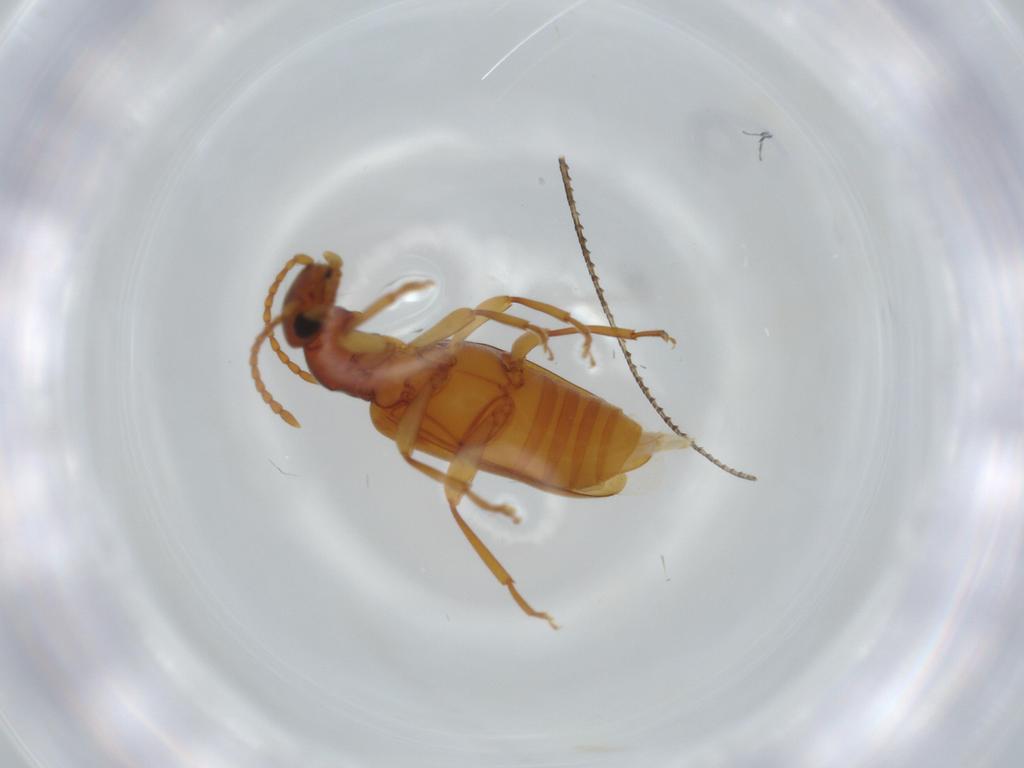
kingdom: Animalia
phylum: Arthropoda
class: Insecta
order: Coleoptera
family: Anthicidae
